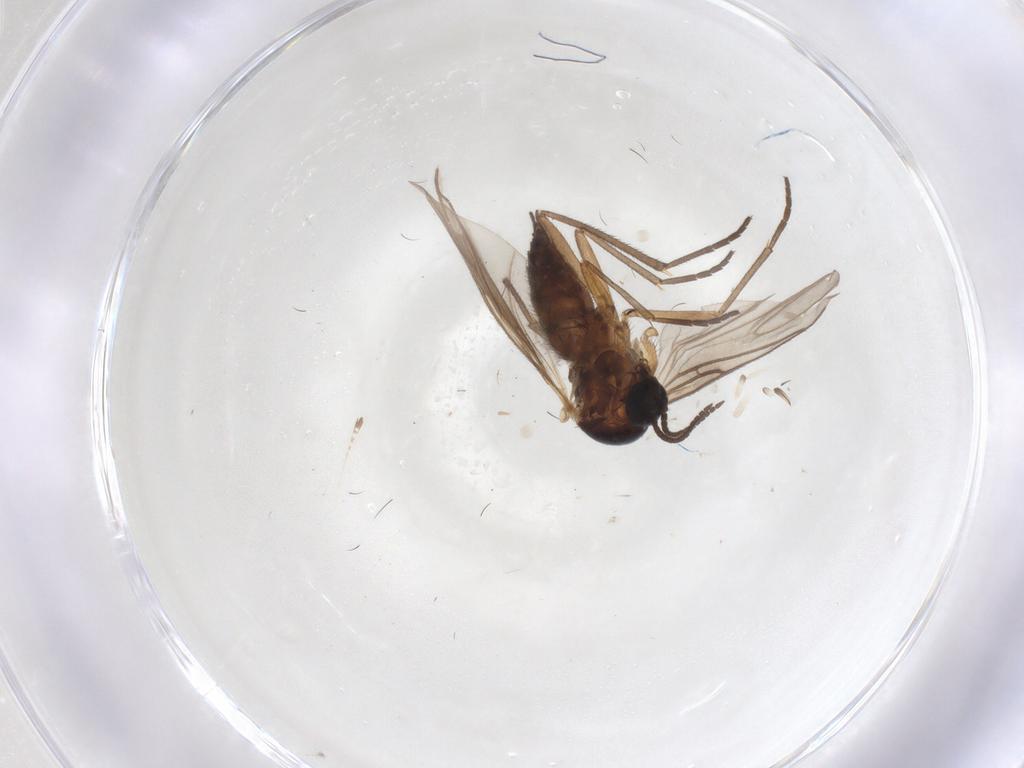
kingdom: Animalia
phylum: Arthropoda
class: Insecta
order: Diptera
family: Sciaridae
